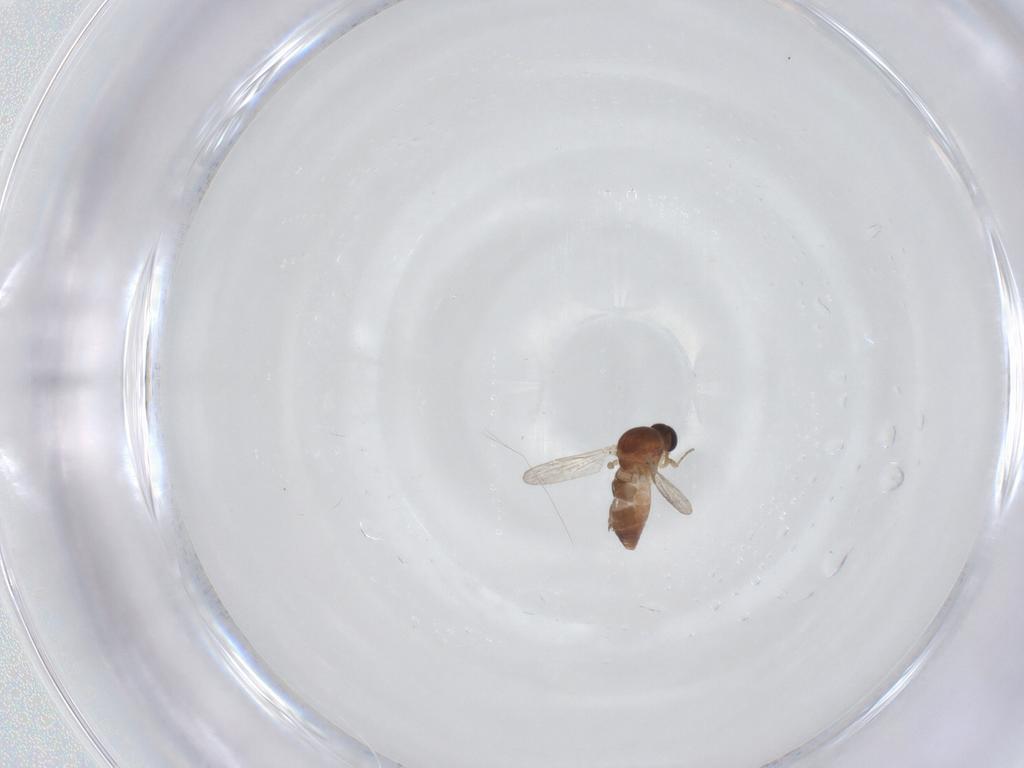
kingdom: Animalia
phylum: Arthropoda
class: Insecta
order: Diptera
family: Ceratopogonidae
